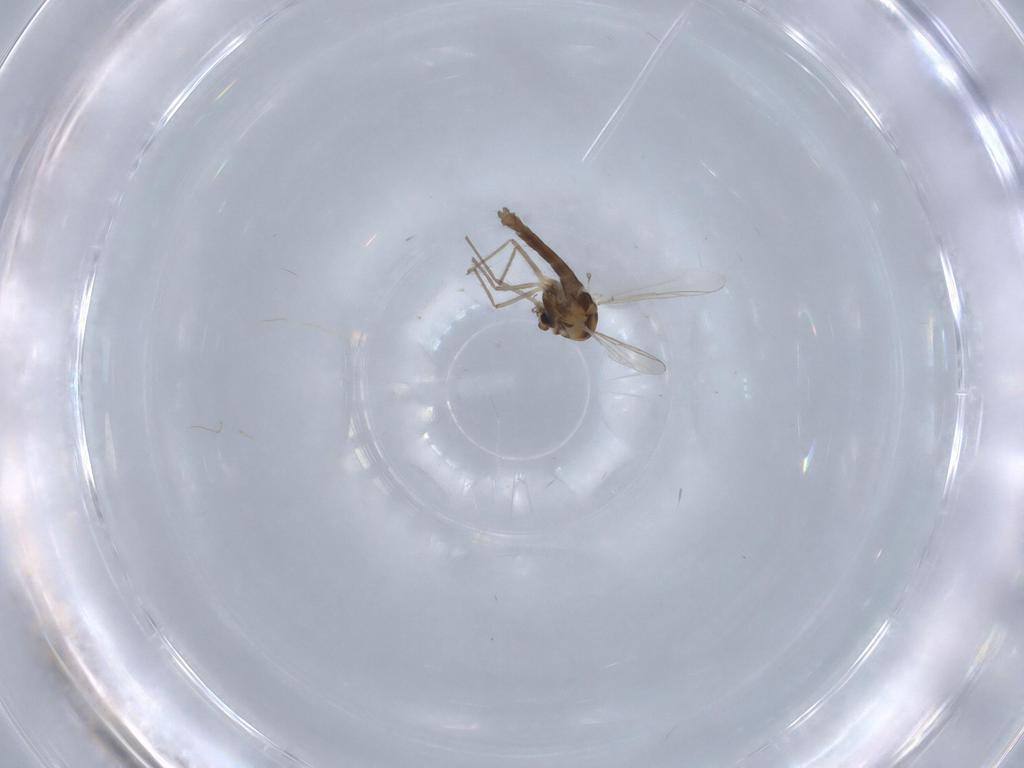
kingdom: Animalia
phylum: Arthropoda
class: Insecta
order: Diptera
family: Chironomidae
